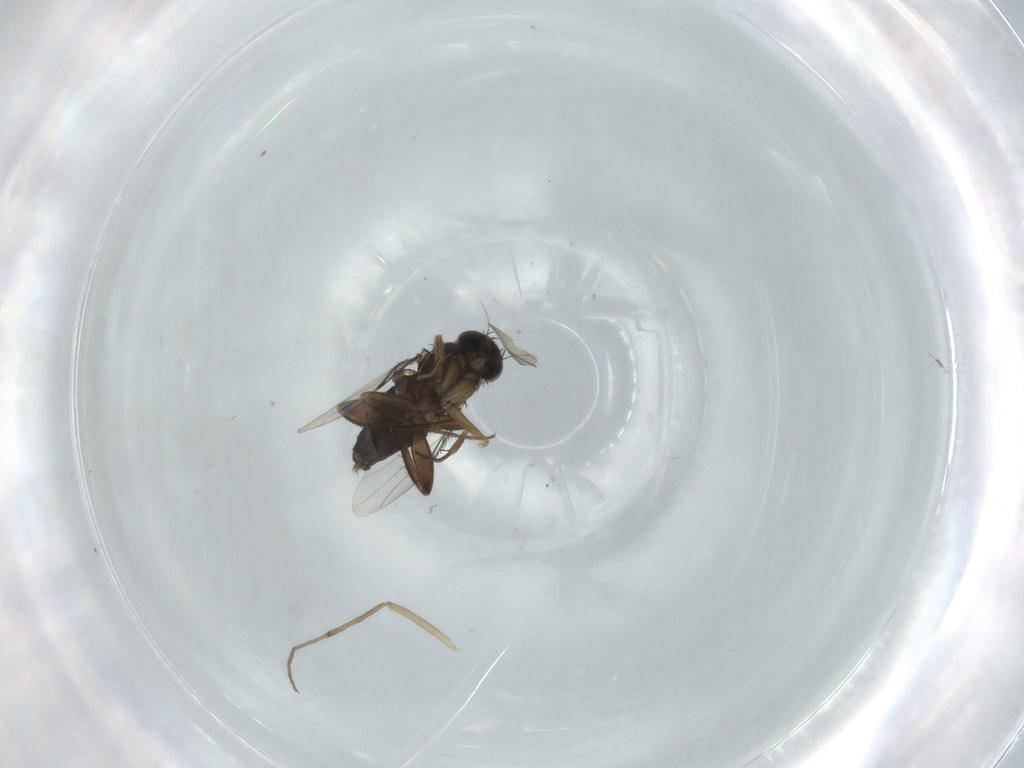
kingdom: Animalia
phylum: Arthropoda
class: Insecta
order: Diptera
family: Phoridae
